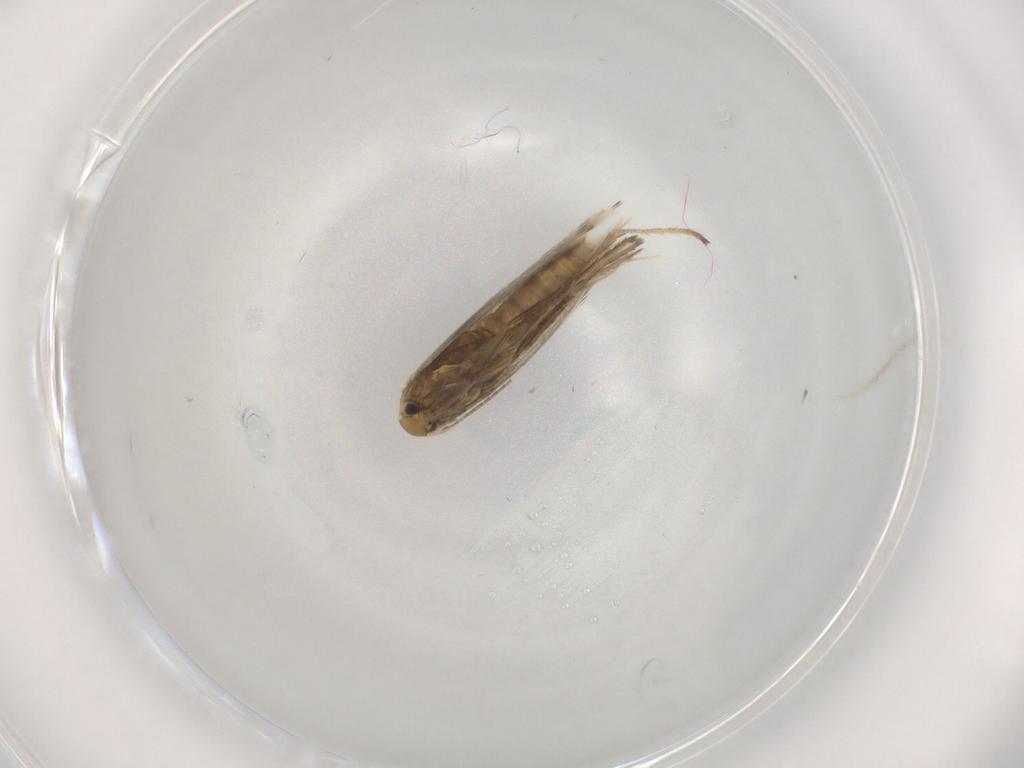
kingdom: Animalia
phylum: Arthropoda
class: Insecta
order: Lepidoptera
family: Gracillariidae
